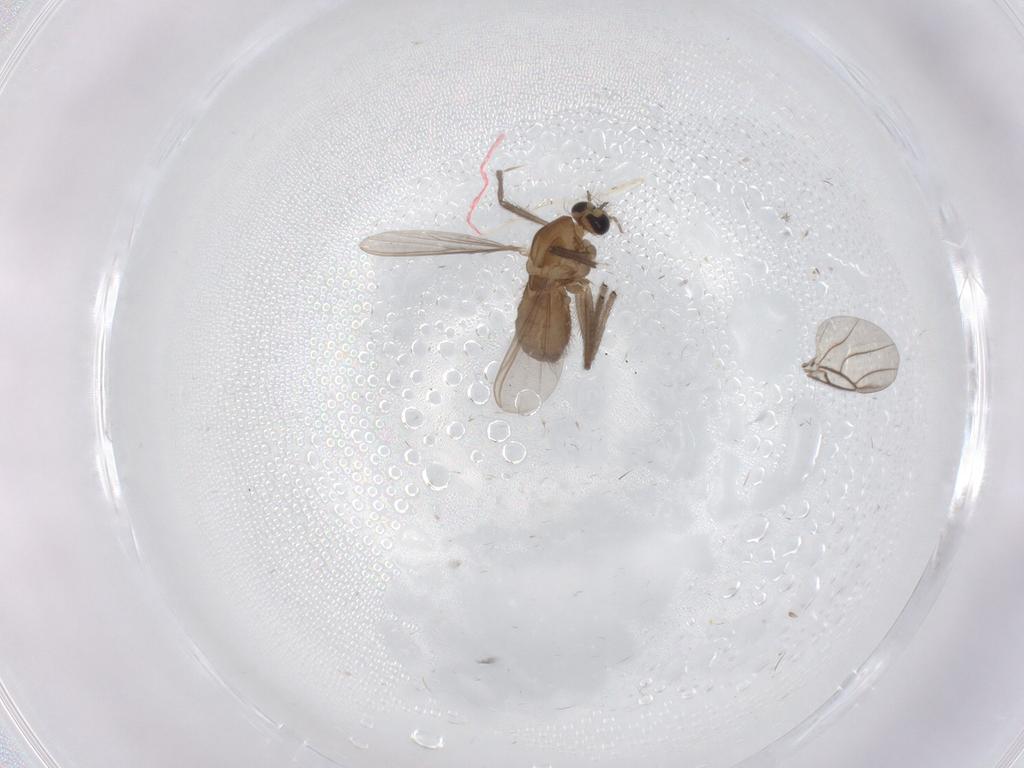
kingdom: Animalia
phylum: Arthropoda
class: Insecta
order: Diptera
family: Chironomidae
